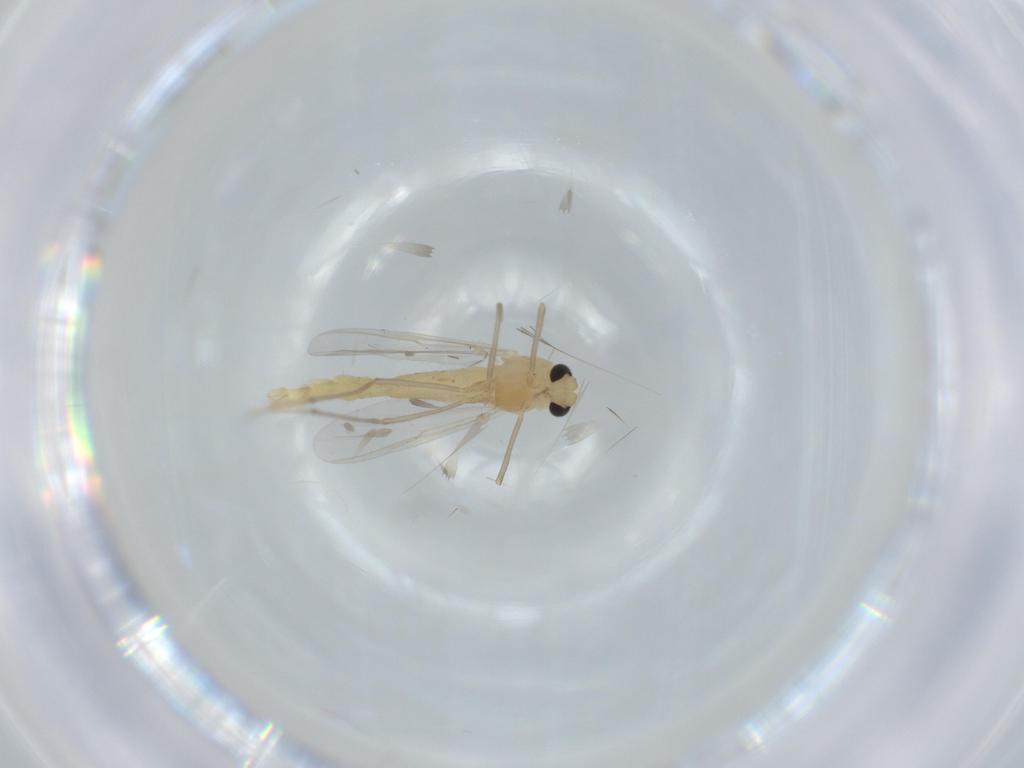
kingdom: Animalia
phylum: Arthropoda
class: Insecta
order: Diptera
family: Chironomidae
